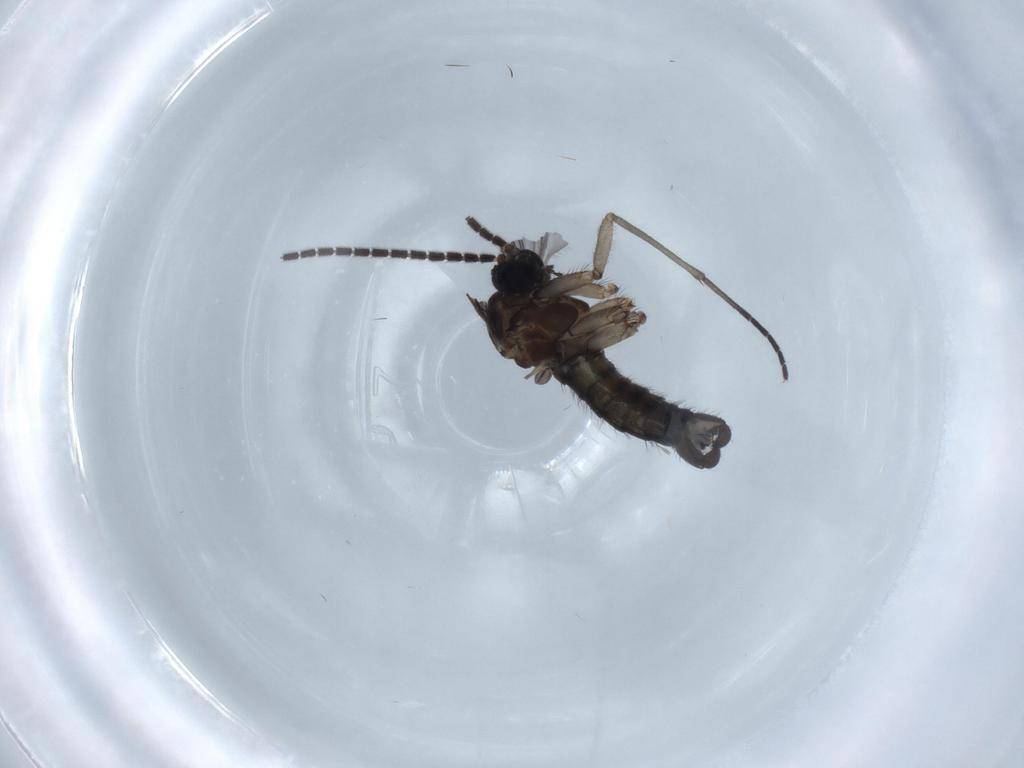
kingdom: Animalia
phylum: Arthropoda
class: Insecta
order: Diptera
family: Sciaridae
